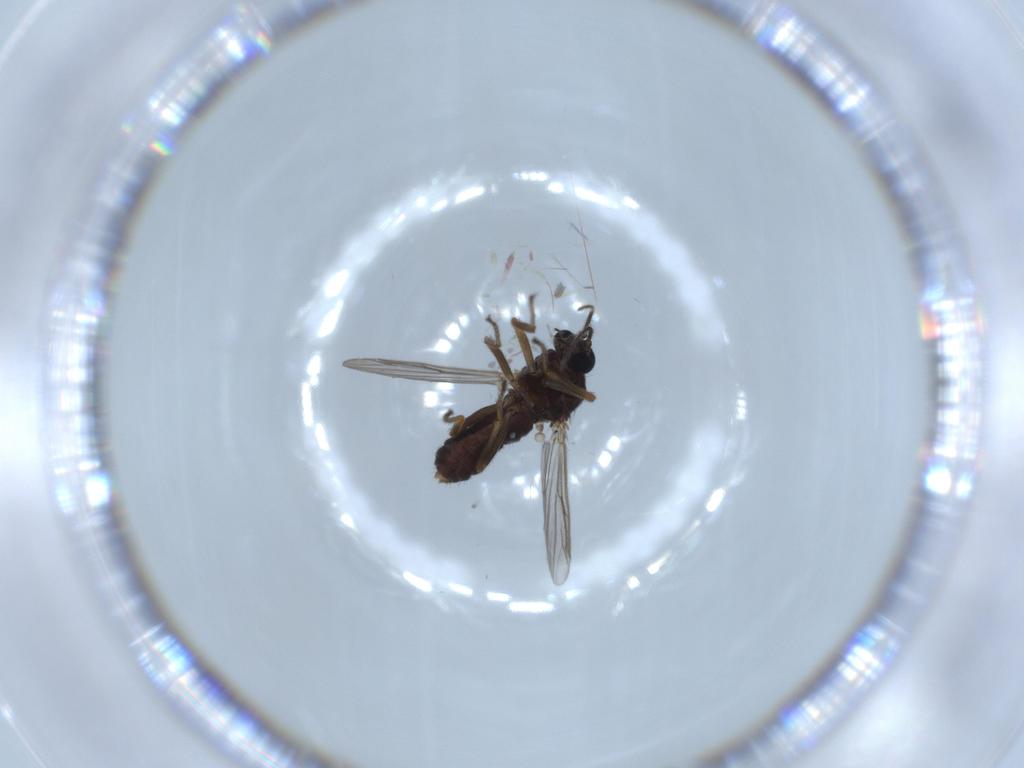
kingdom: Animalia
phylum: Arthropoda
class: Insecta
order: Diptera
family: Ceratopogonidae
